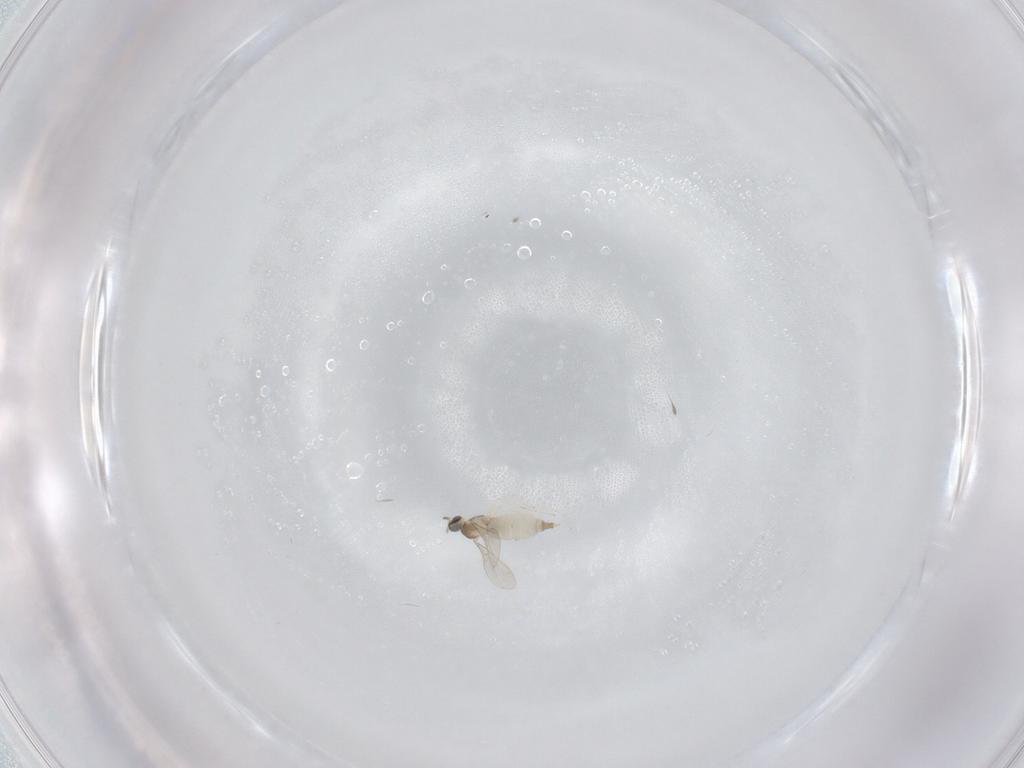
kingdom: Animalia
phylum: Arthropoda
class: Insecta
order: Diptera
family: Cecidomyiidae
